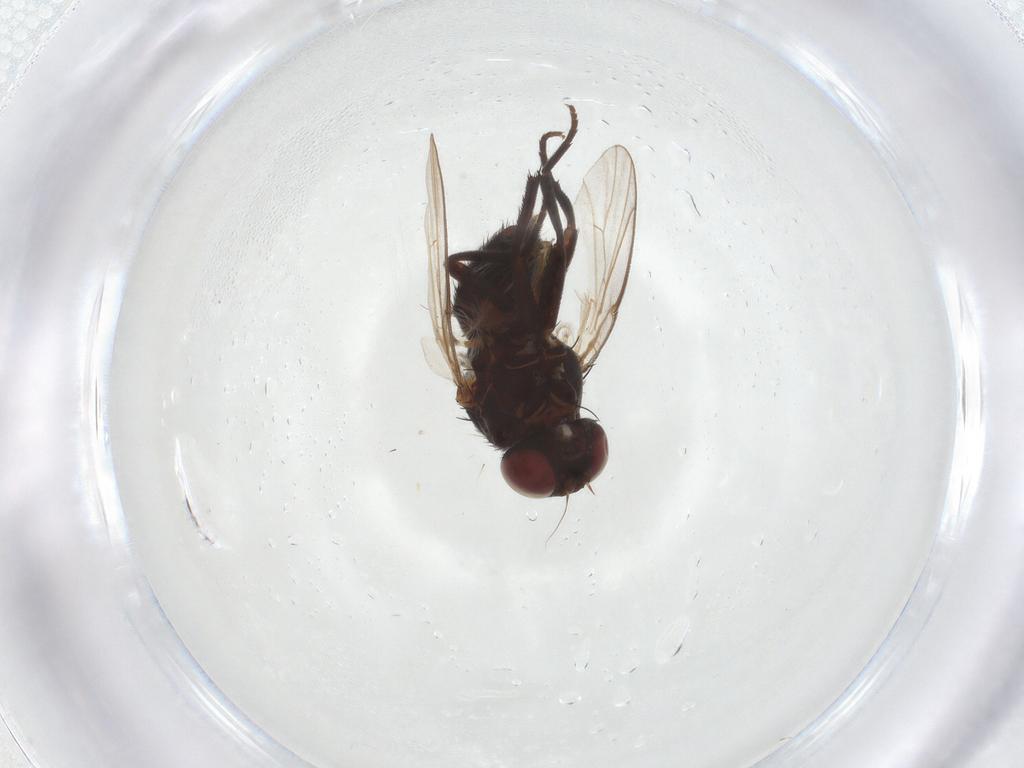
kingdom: Animalia
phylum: Arthropoda
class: Insecta
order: Diptera
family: Agromyzidae
